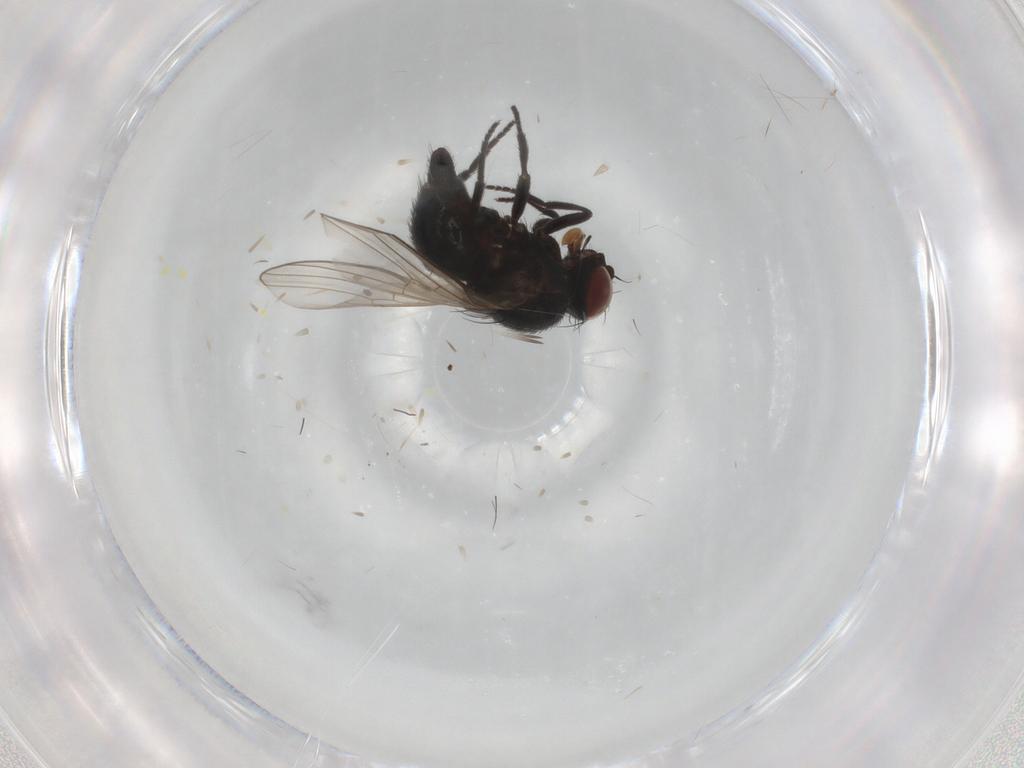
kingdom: Animalia
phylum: Arthropoda
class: Insecta
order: Diptera
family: Agromyzidae
